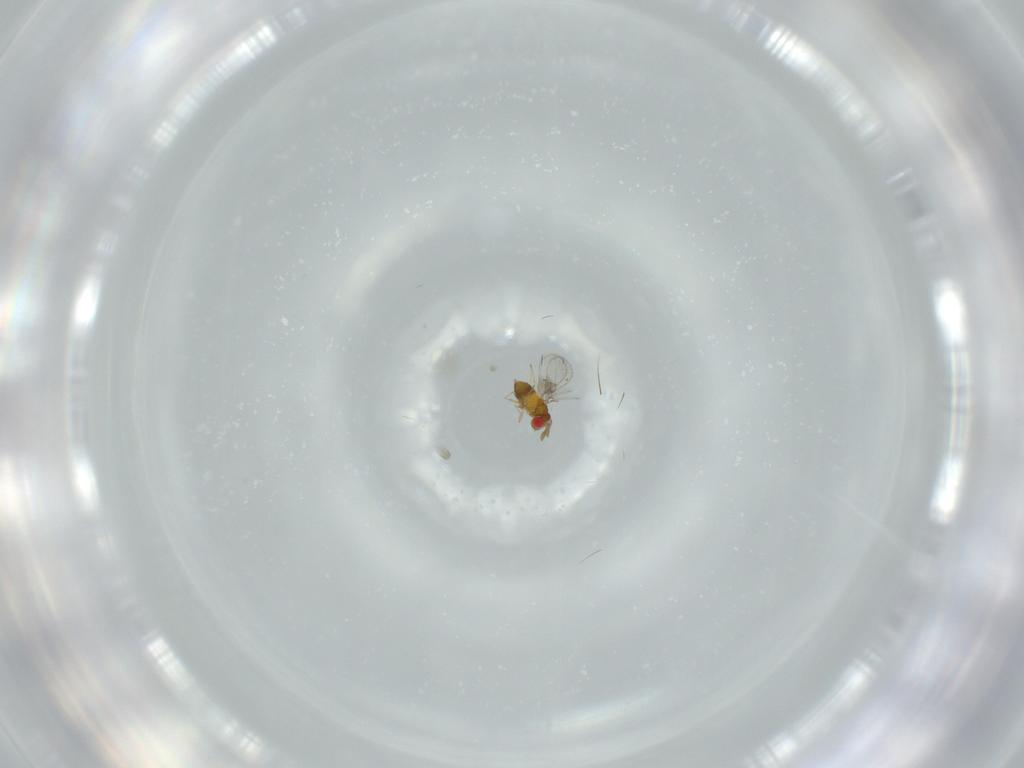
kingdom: Animalia
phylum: Arthropoda
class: Insecta
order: Hymenoptera
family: Trichogrammatidae
